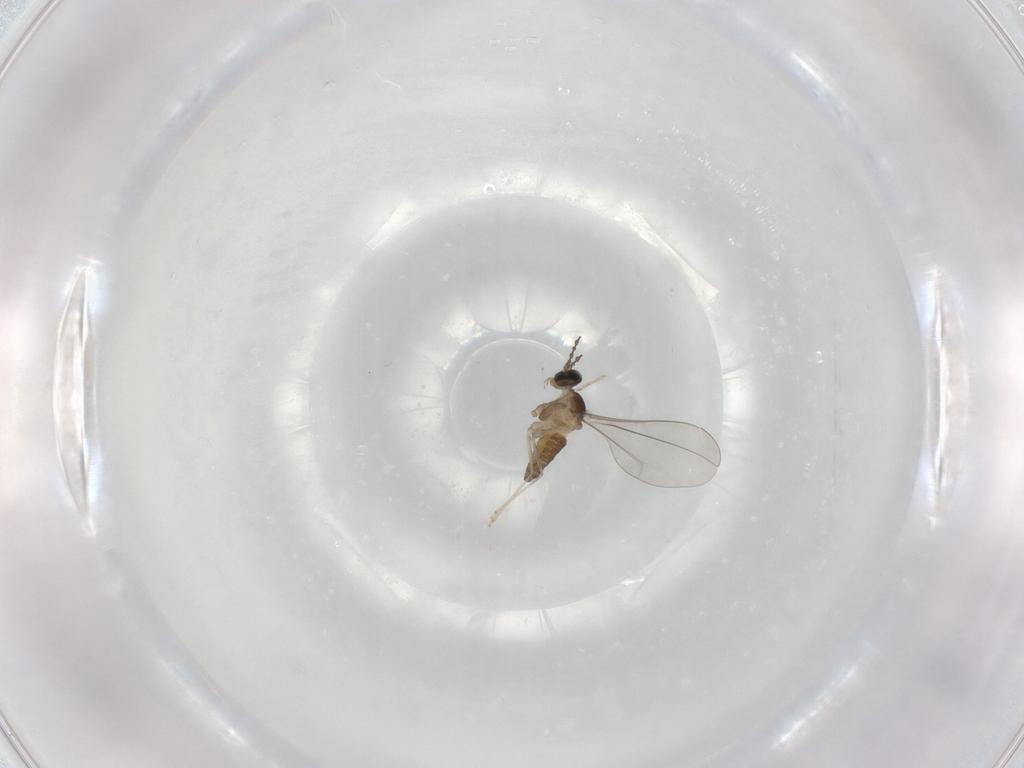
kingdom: Animalia
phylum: Arthropoda
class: Insecta
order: Diptera
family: Cecidomyiidae
